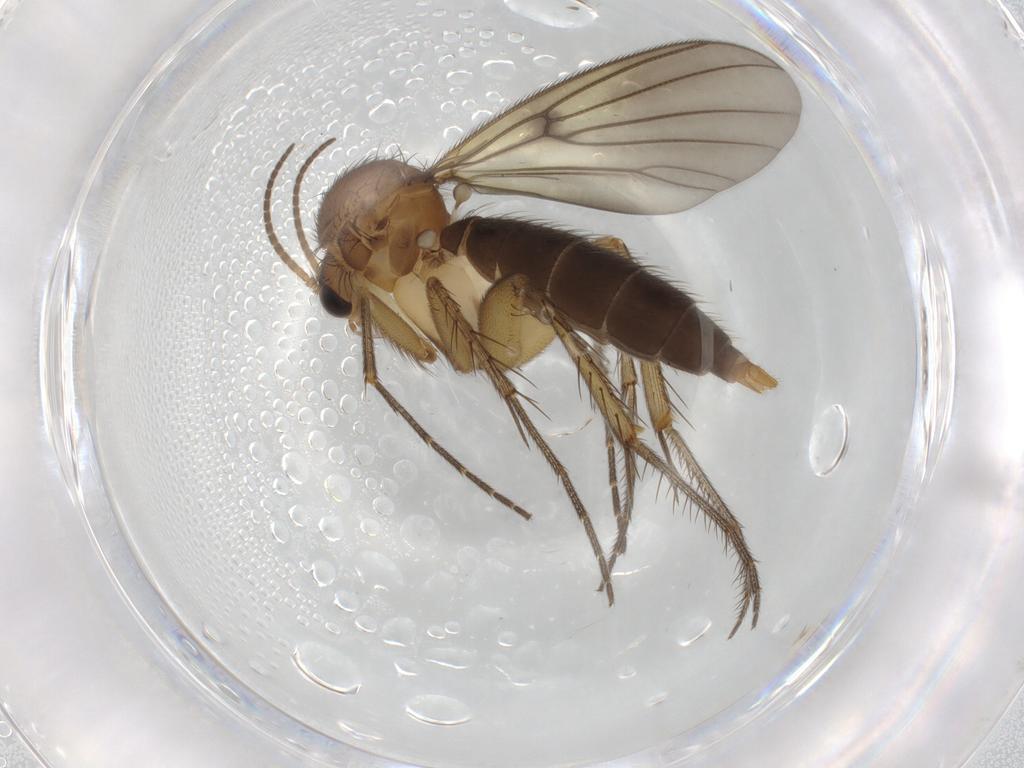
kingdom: Animalia
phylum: Arthropoda
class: Insecta
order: Diptera
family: Mycetophilidae
